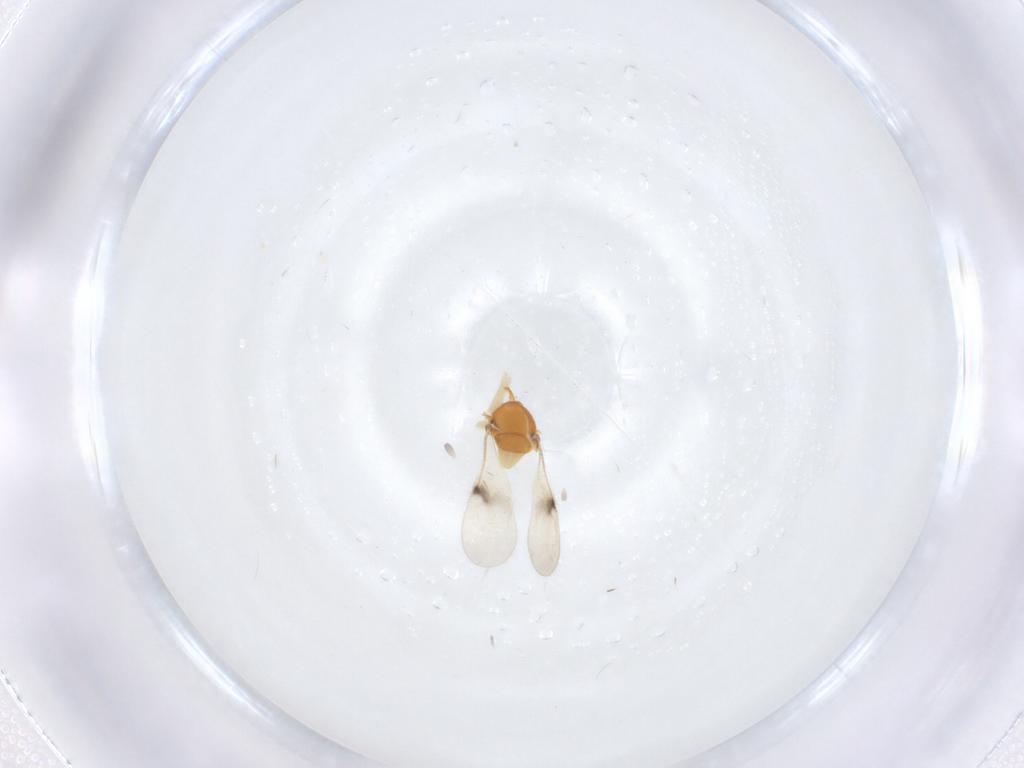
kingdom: Animalia
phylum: Arthropoda
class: Insecta
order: Hymenoptera
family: Scelionidae
